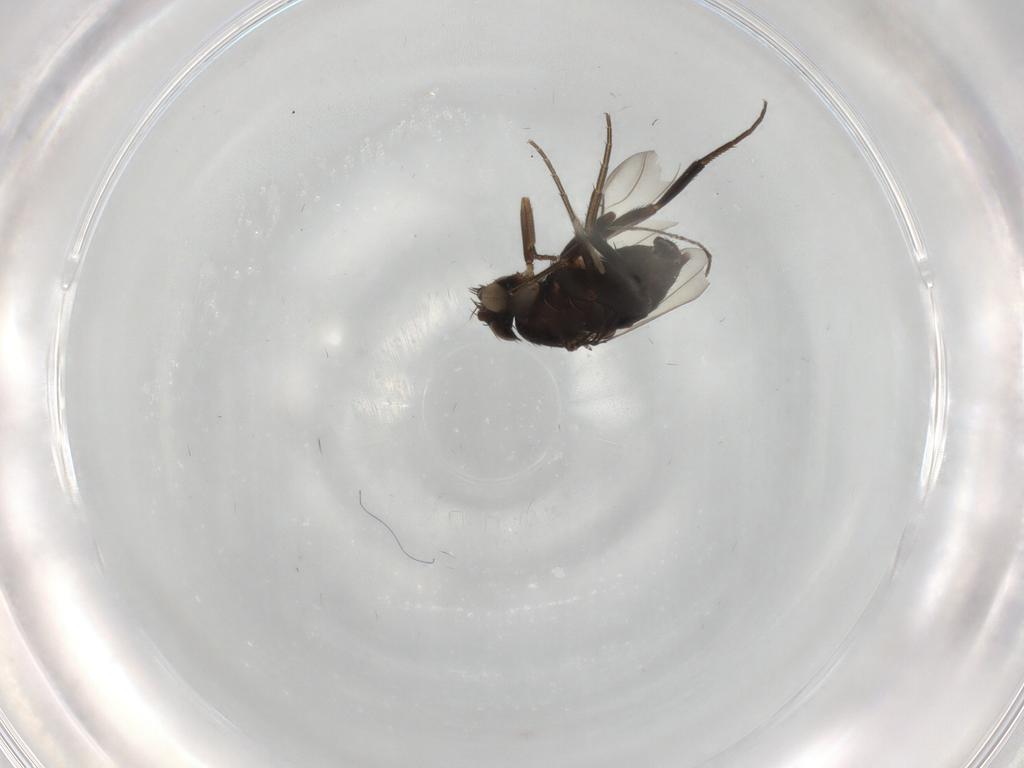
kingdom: Animalia
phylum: Arthropoda
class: Insecta
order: Diptera
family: Phoridae
